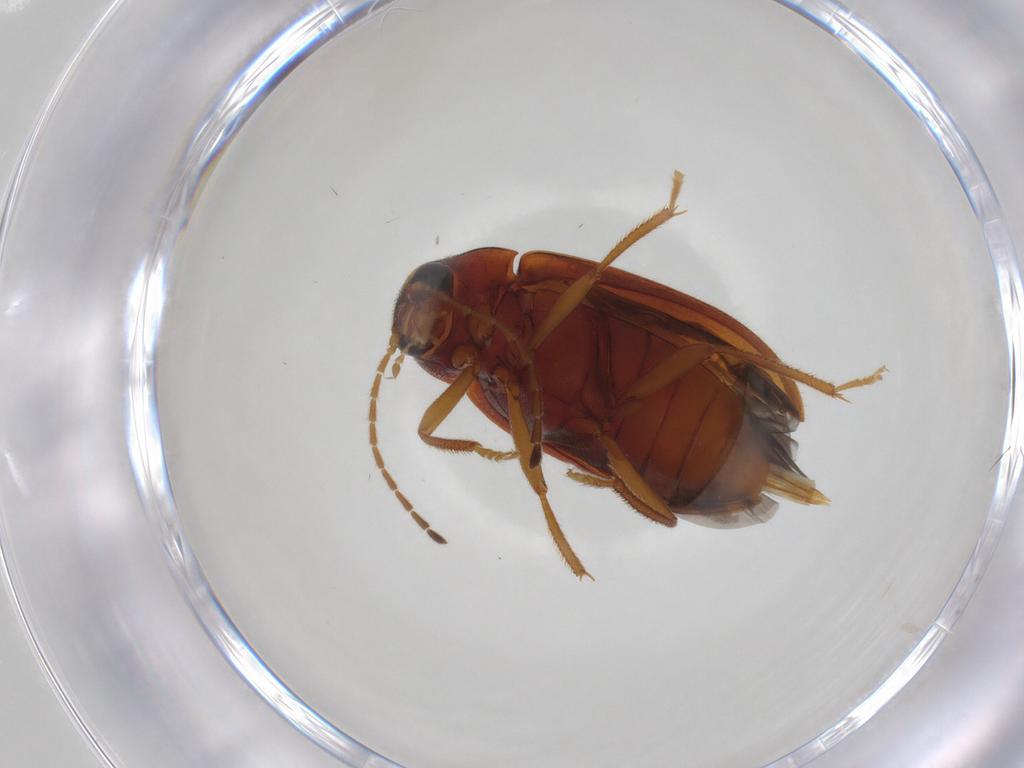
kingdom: Animalia
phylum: Arthropoda
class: Insecta
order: Coleoptera
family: Ptilodactylidae
